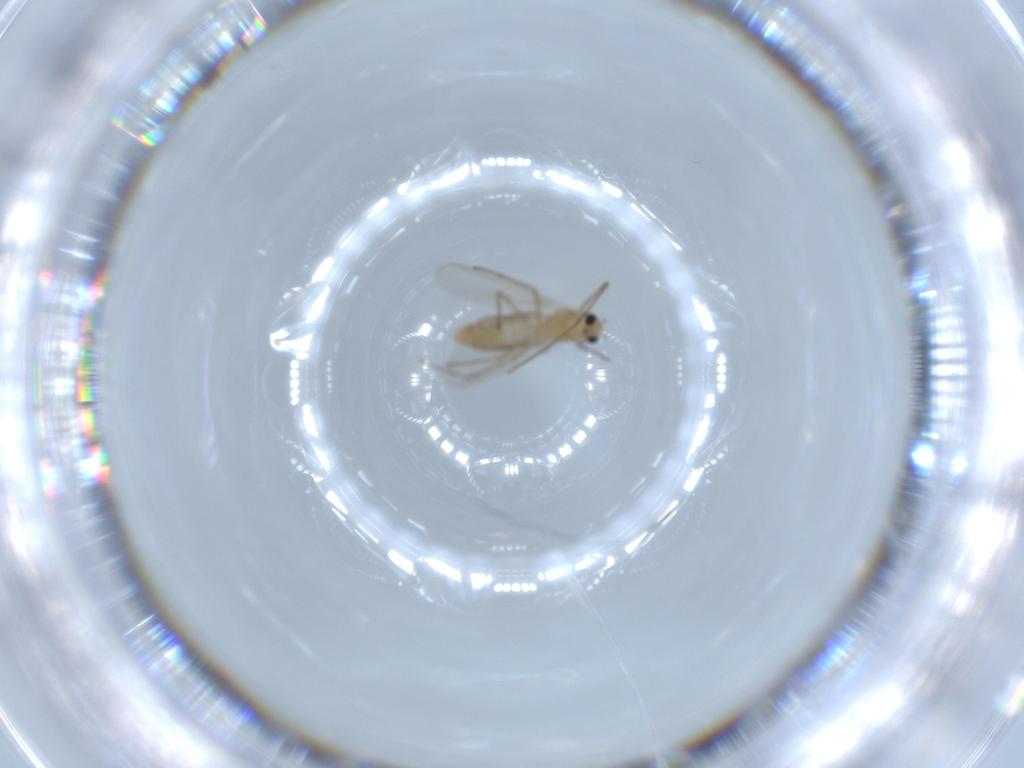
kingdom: Animalia
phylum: Arthropoda
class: Insecta
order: Diptera
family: Chironomidae
